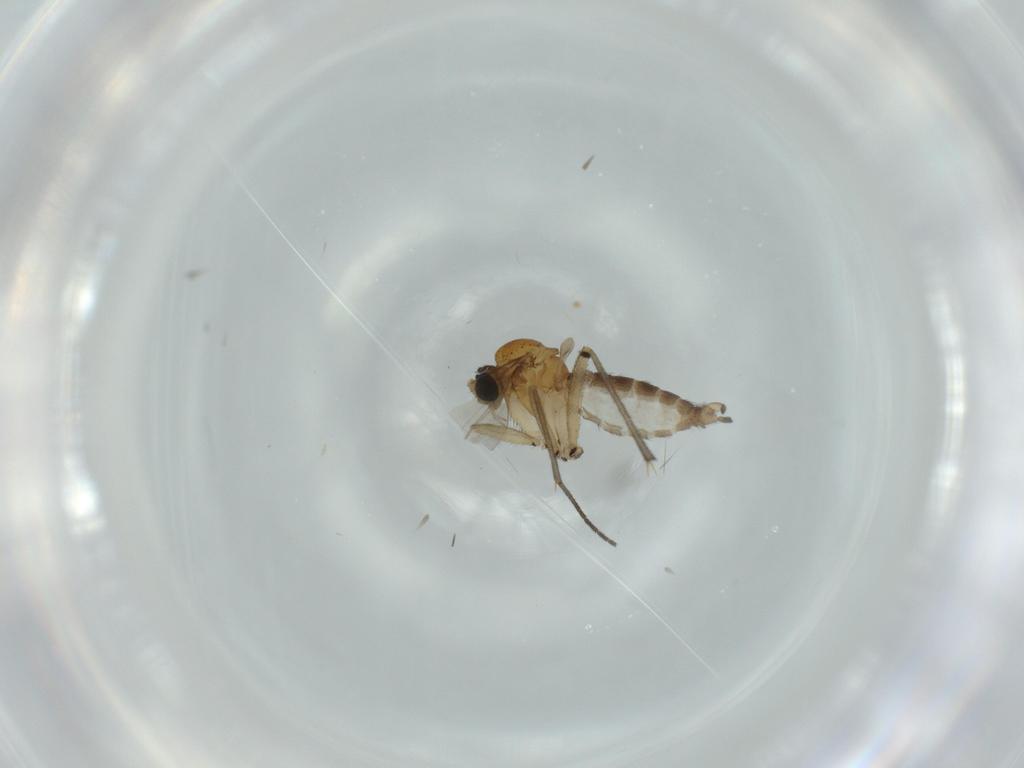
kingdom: Animalia
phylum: Arthropoda
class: Insecta
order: Diptera
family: Sciaridae
